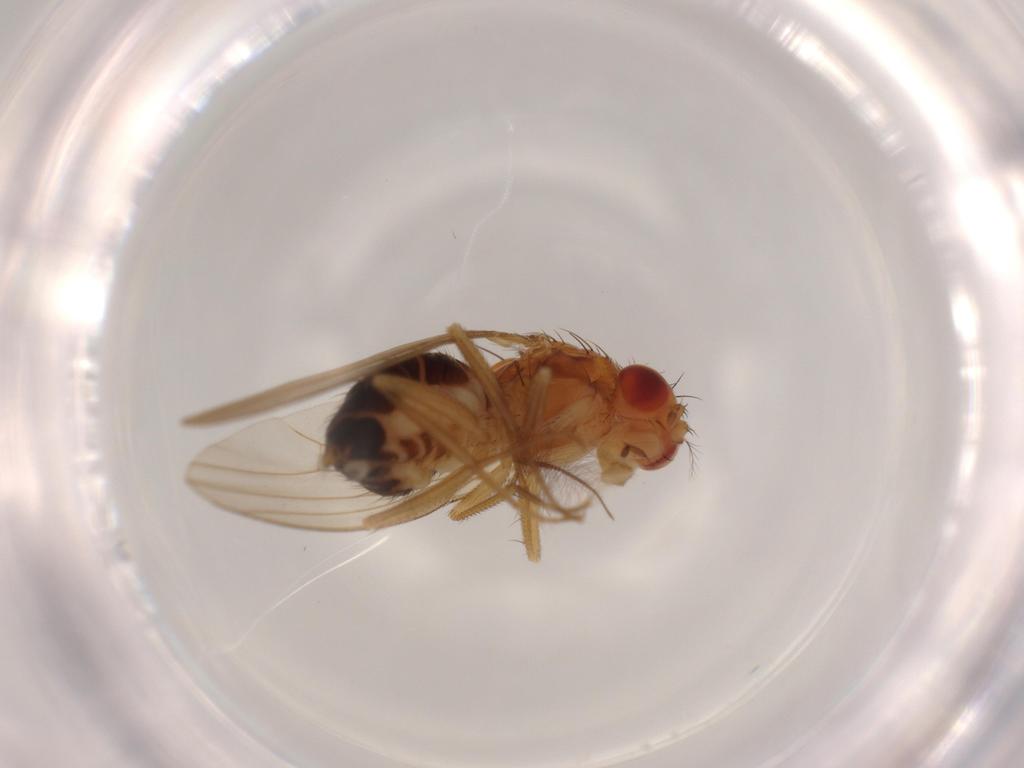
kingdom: Animalia
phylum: Arthropoda
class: Insecta
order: Diptera
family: Drosophilidae
